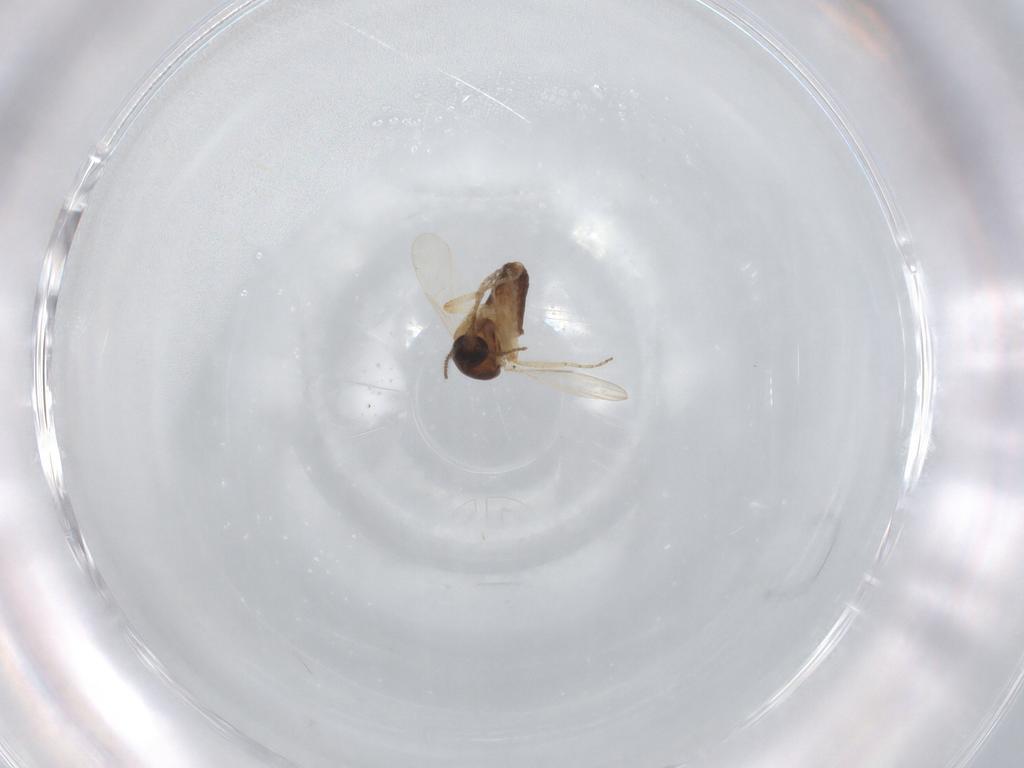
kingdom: Animalia
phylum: Arthropoda
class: Insecta
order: Diptera
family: Ceratopogonidae
